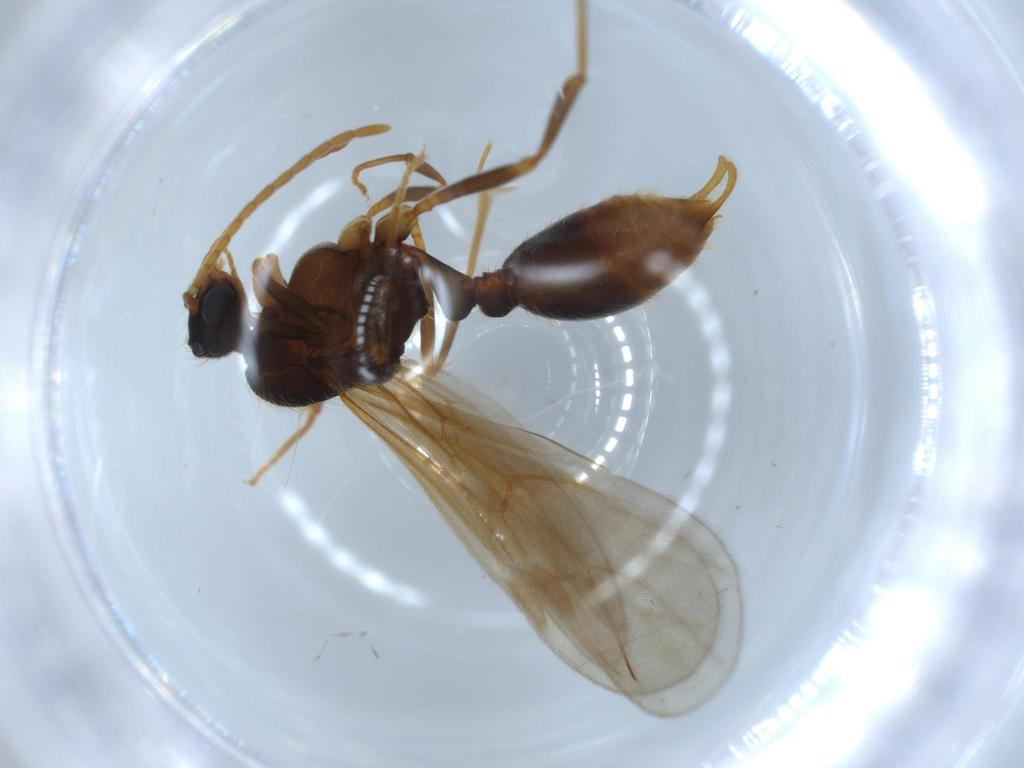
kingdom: Animalia
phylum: Arthropoda
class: Insecta
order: Hymenoptera
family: Formicidae
